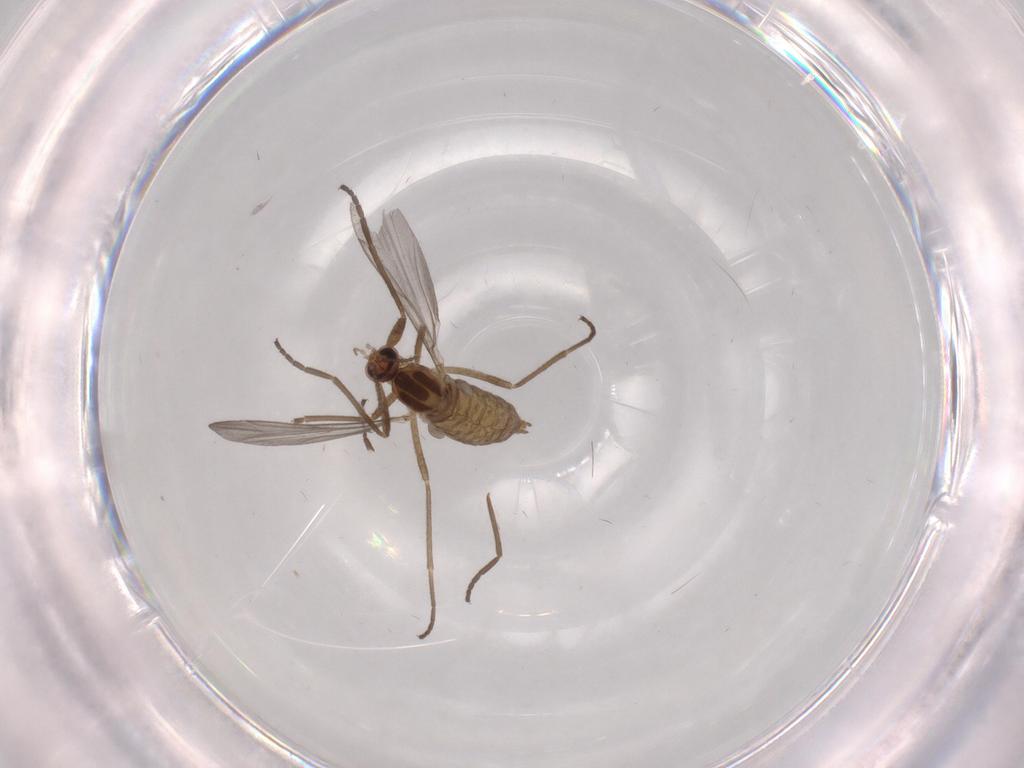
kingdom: Animalia
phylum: Arthropoda
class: Insecta
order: Diptera
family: Cecidomyiidae
